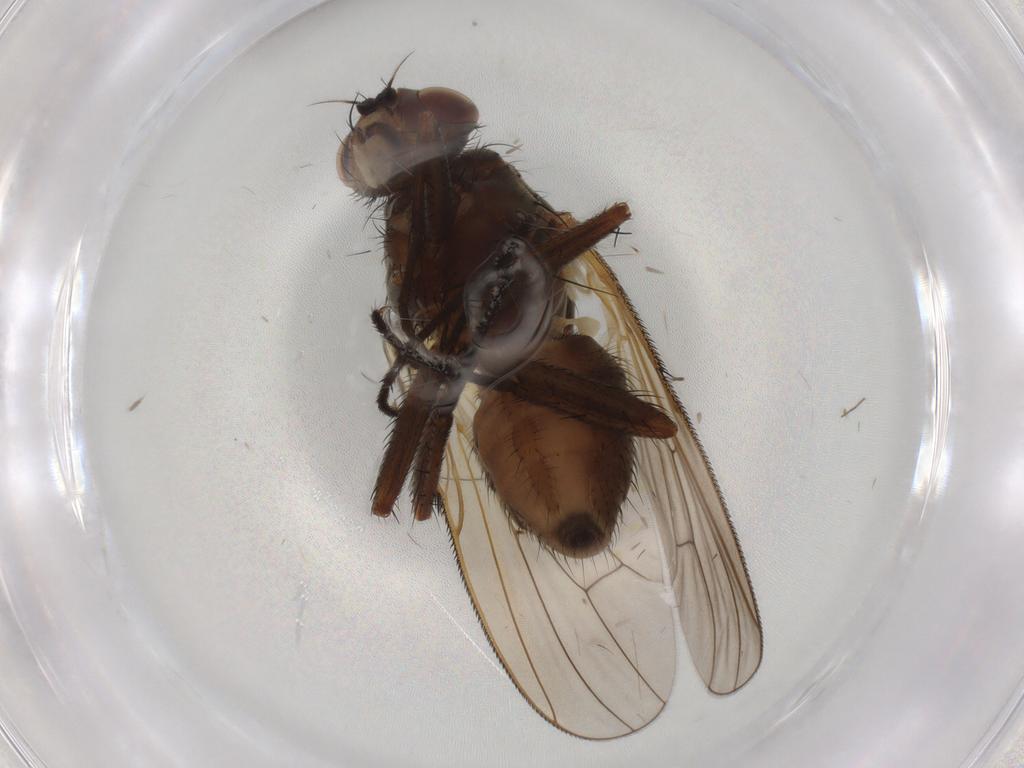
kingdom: Animalia
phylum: Arthropoda
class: Insecta
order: Diptera
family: Anthomyiidae
